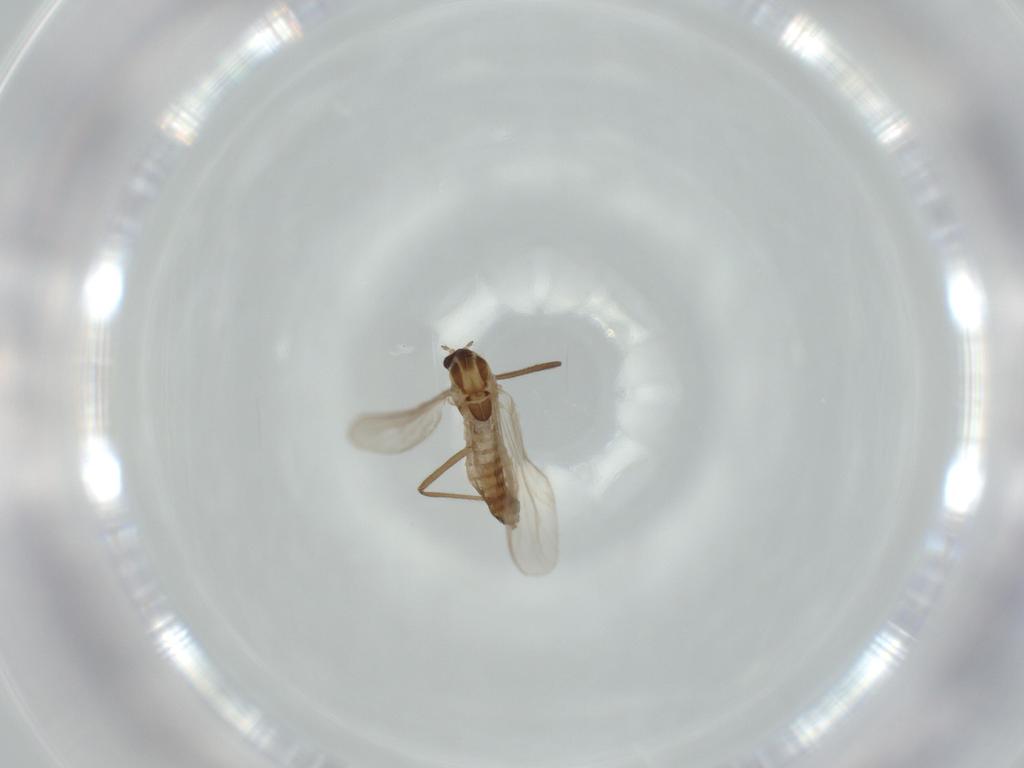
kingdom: Animalia
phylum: Arthropoda
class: Insecta
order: Diptera
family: Chironomidae
